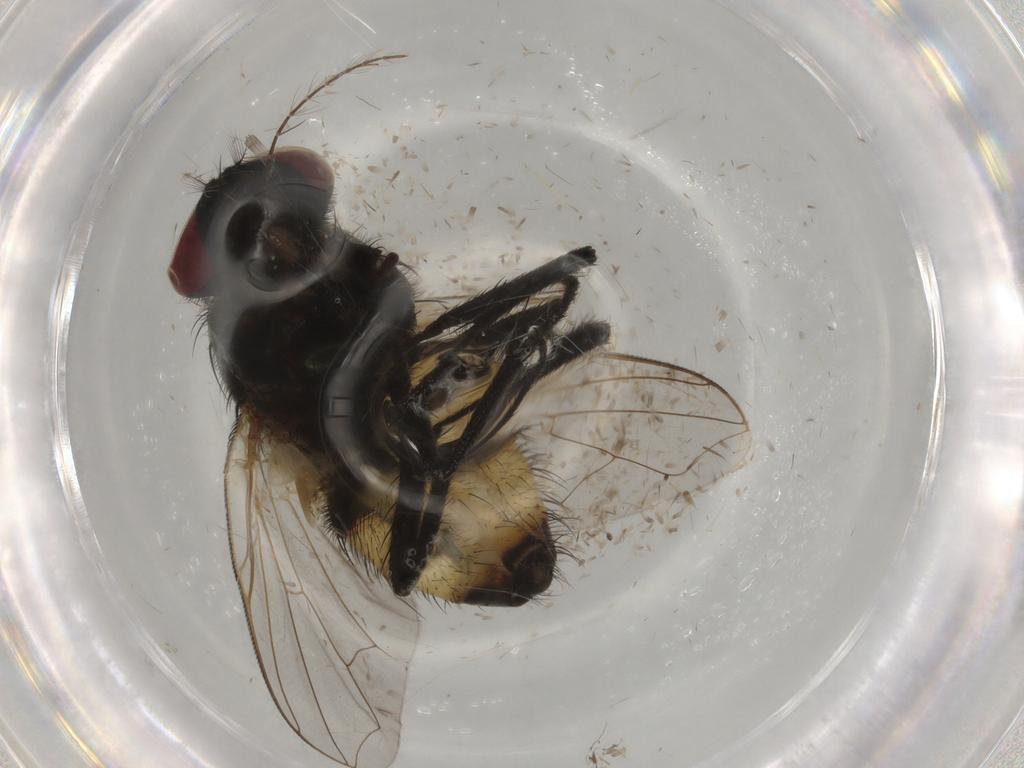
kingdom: Animalia
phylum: Arthropoda
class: Insecta
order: Diptera
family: Muscidae
